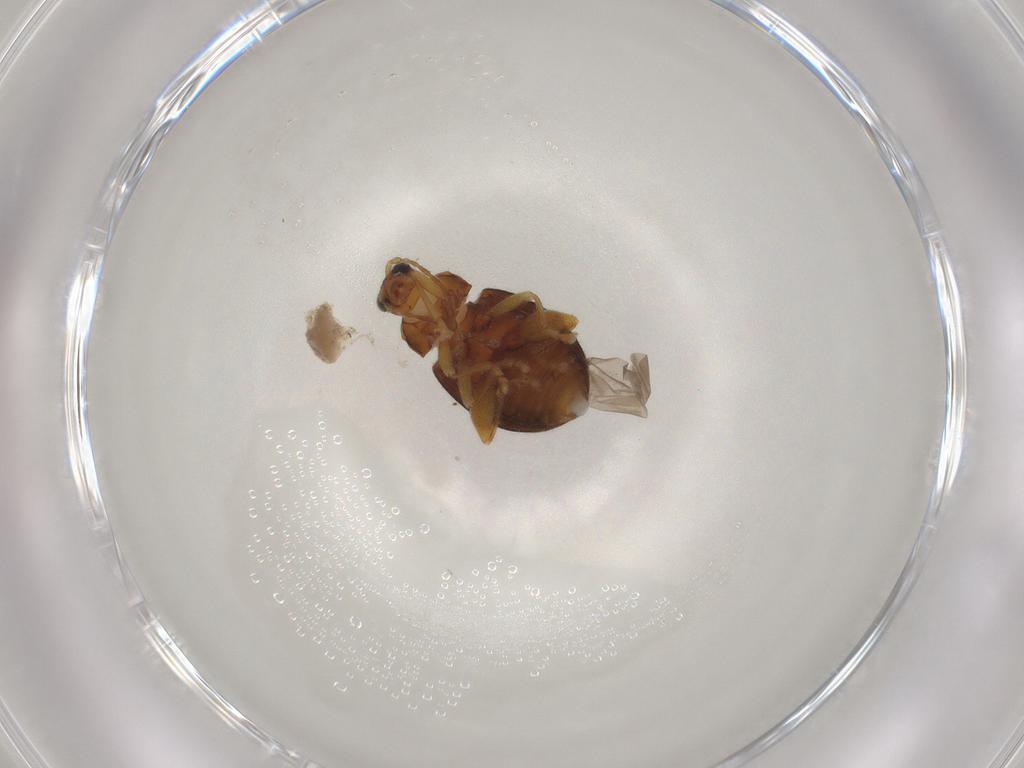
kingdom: Animalia
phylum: Arthropoda
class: Insecta
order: Coleoptera
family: Chrysomelidae
